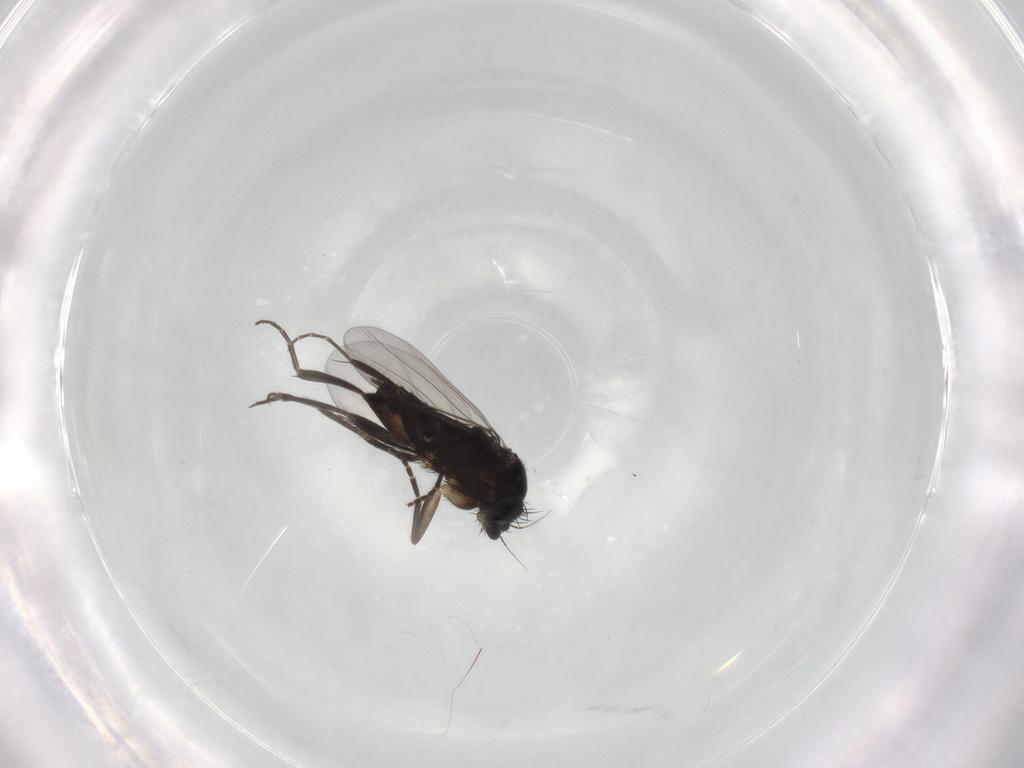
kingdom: Animalia
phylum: Arthropoda
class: Insecta
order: Diptera
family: Phoridae
